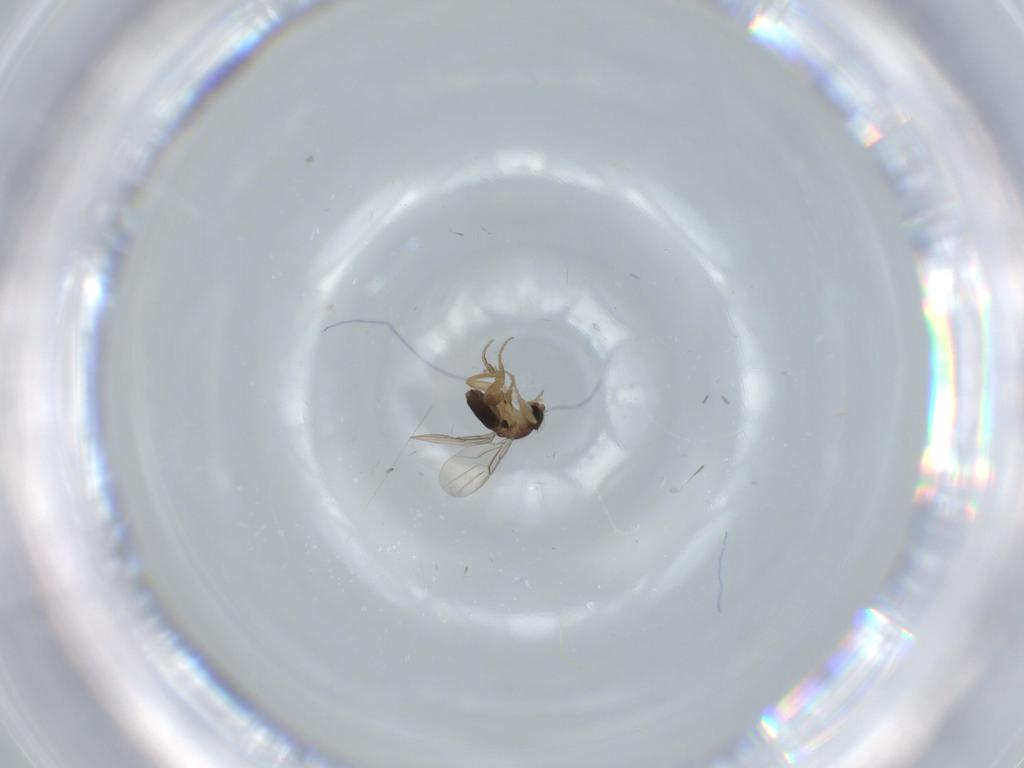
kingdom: Animalia
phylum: Arthropoda
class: Insecta
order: Diptera
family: Phoridae
